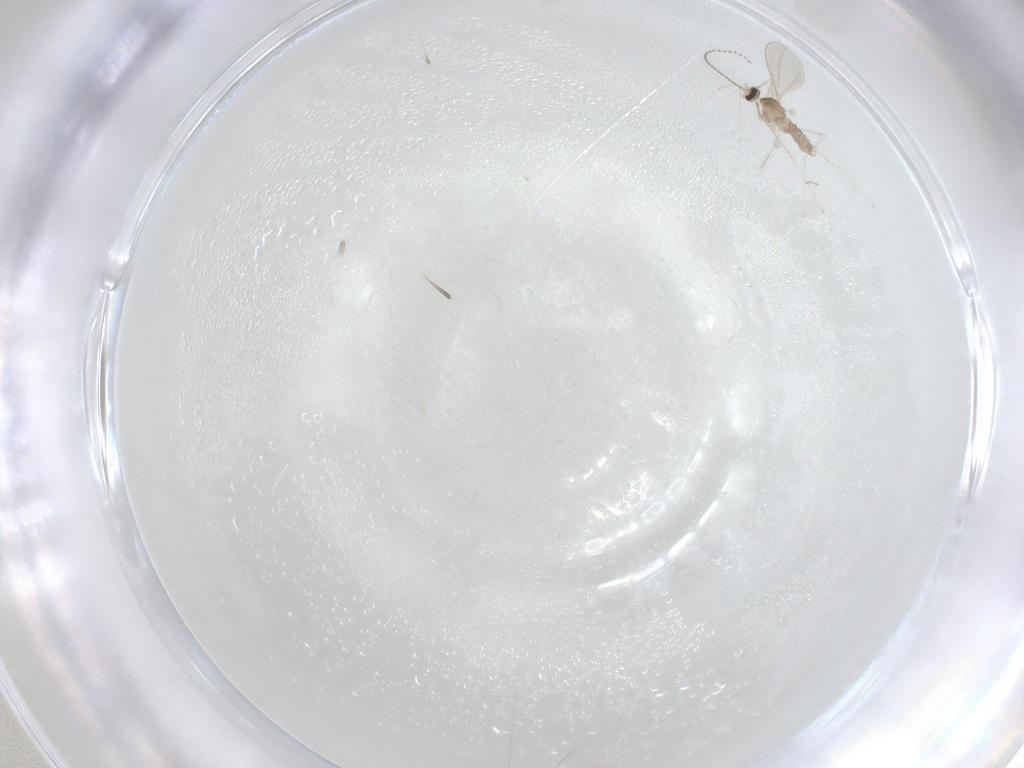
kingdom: Animalia
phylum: Arthropoda
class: Insecta
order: Diptera
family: Cecidomyiidae
